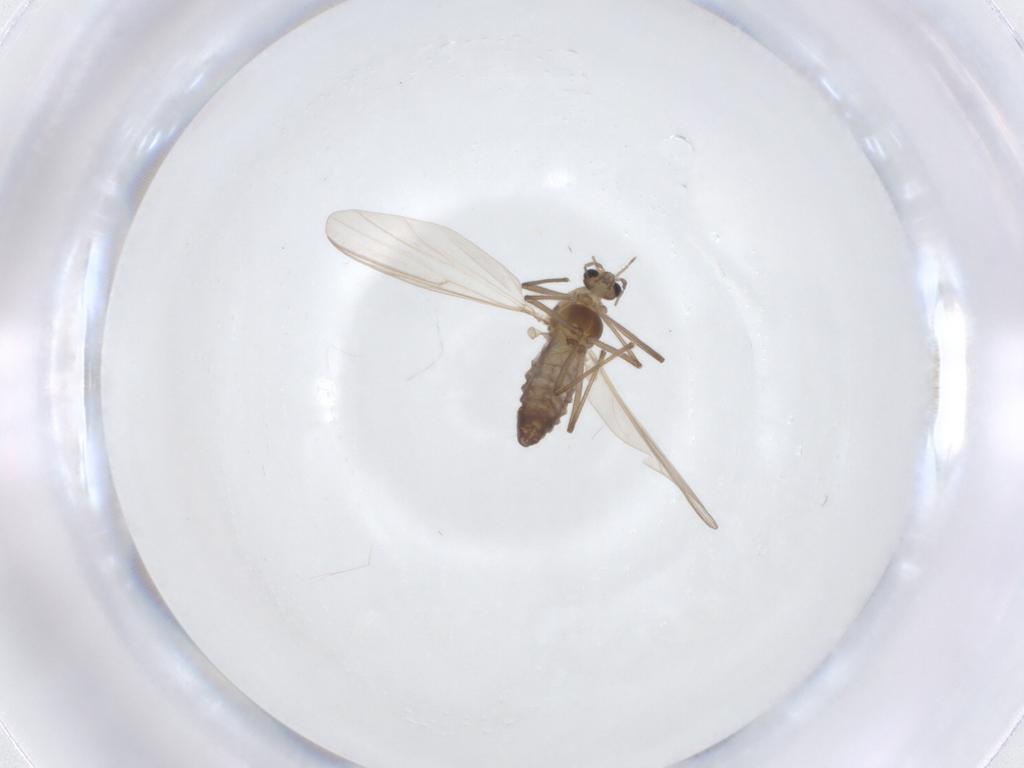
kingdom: Animalia
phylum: Arthropoda
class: Insecta
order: Diptera
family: Chironomidae
